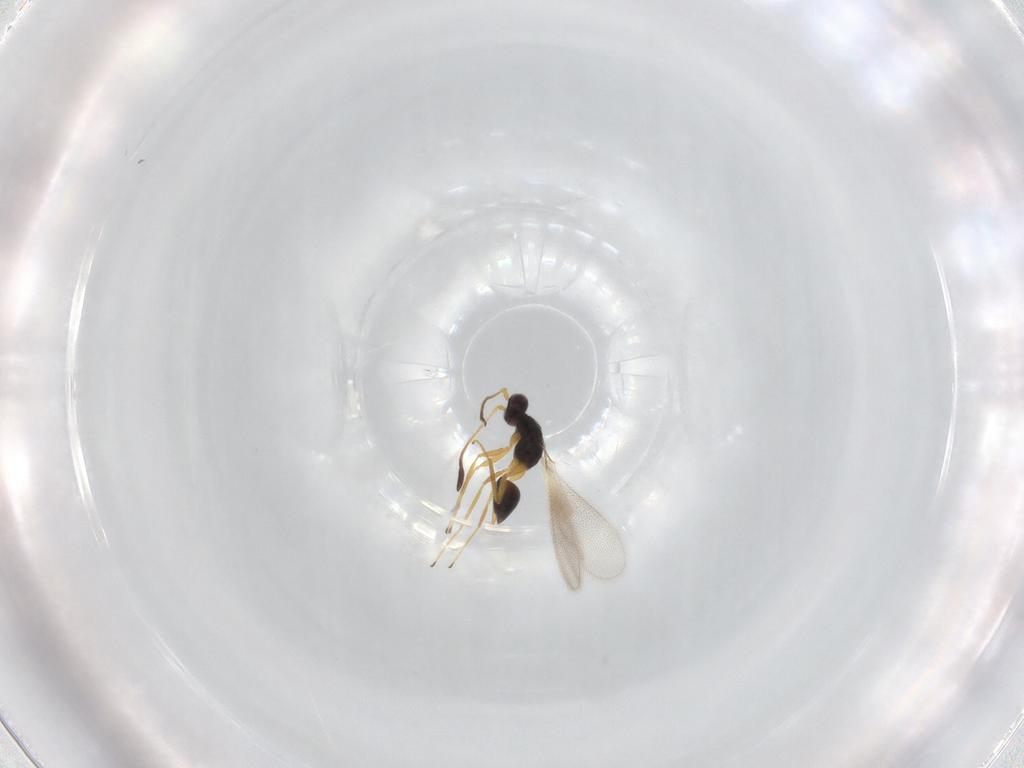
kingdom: Animalia
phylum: Arthropoda
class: Insecta
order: Hymenoptera
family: Mymaridae
